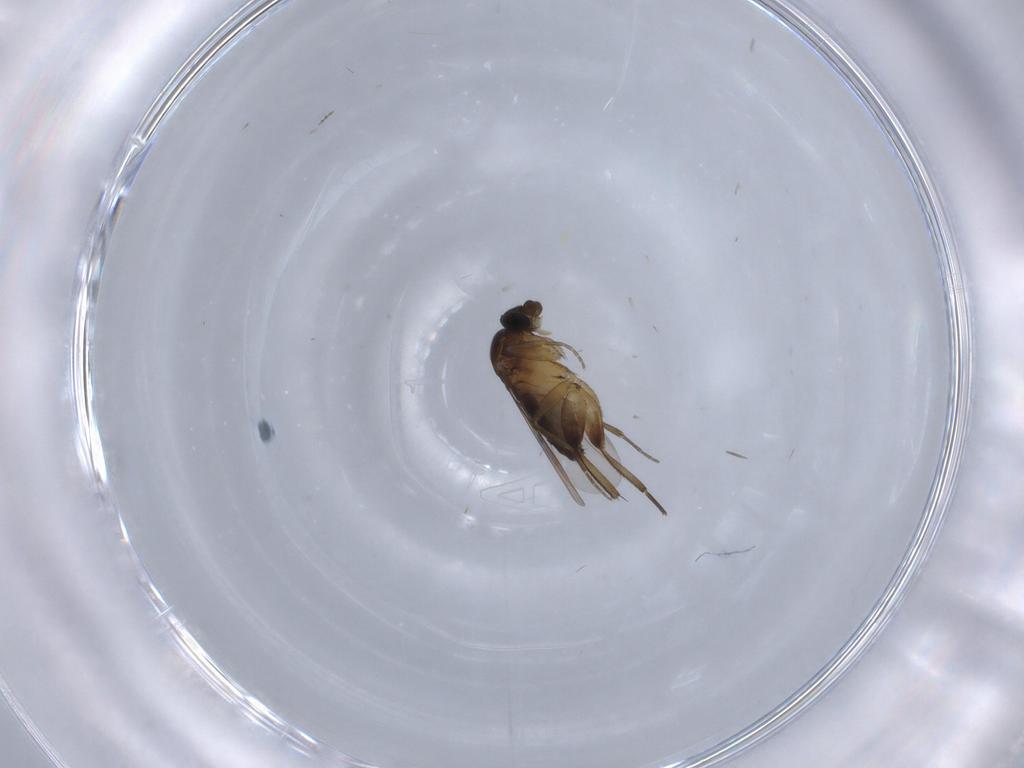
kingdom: Animalia
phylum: Arthropoda
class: Insecta
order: Diptera
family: Phoridae
